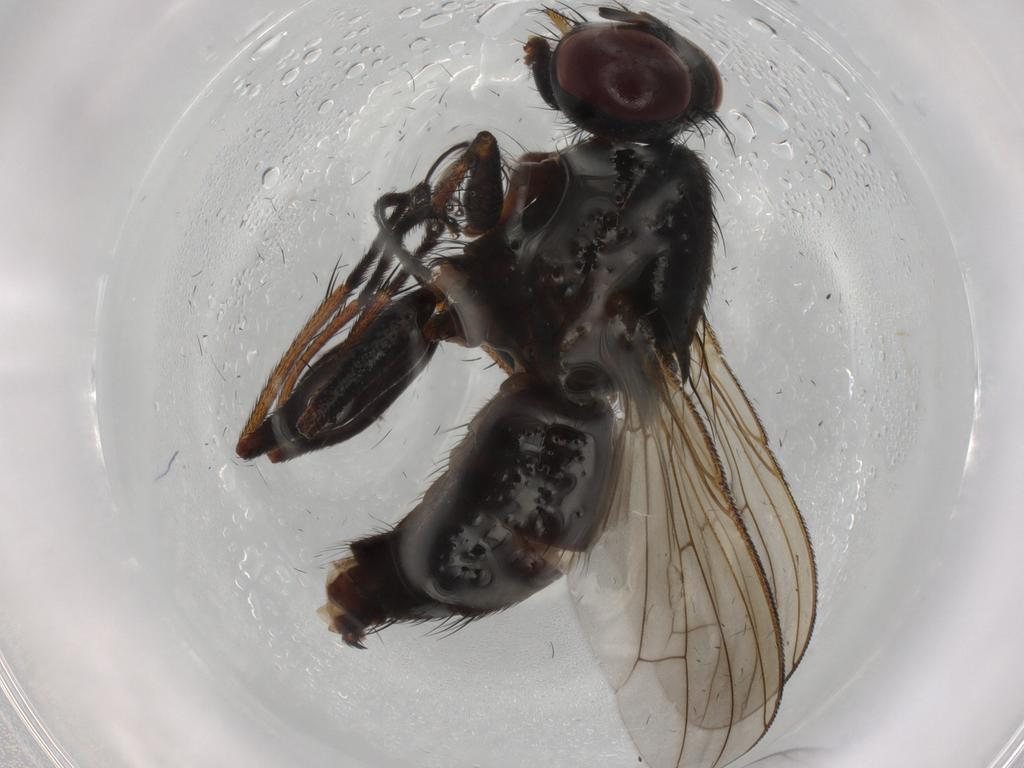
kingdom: Animalia
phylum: Arthropoda
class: Insecta
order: Diptera
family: Muscidae
